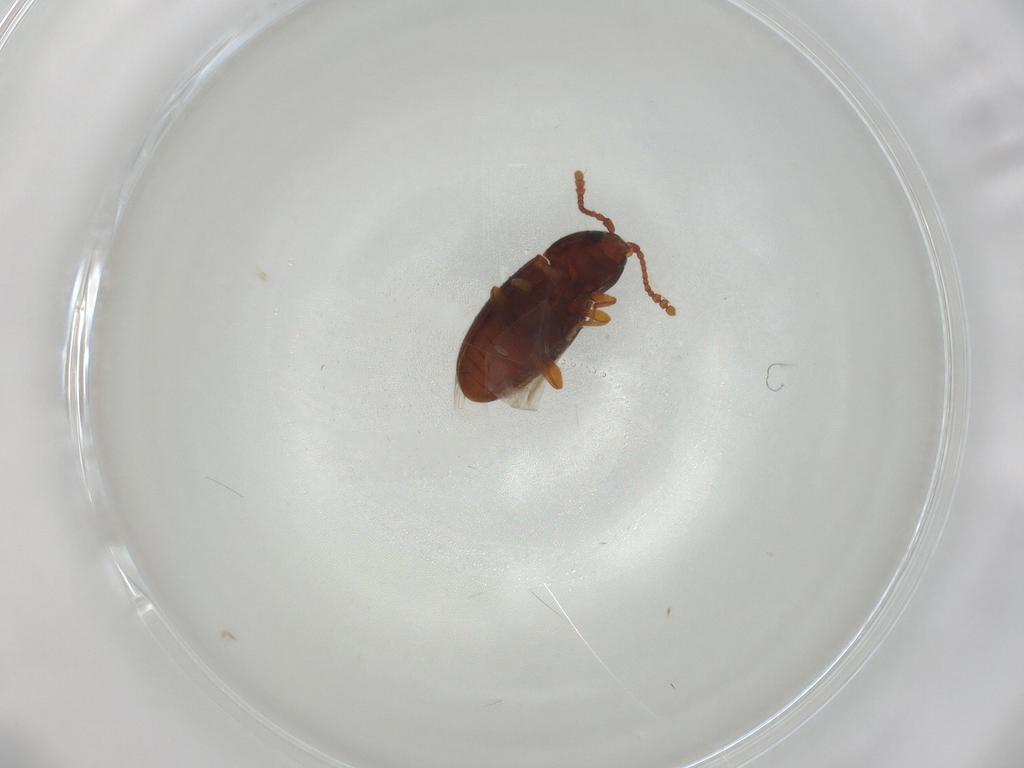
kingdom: Animalia
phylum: Arthropoda
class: Insecta
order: Coleoptera
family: Cryptophagidae
